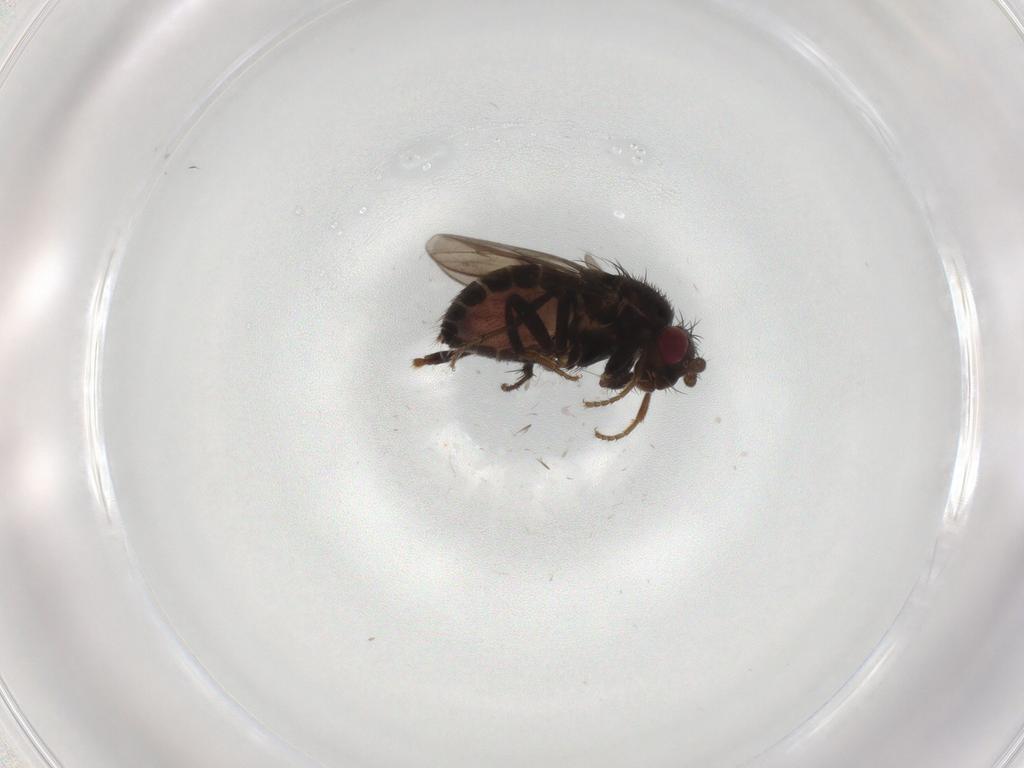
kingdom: Animalia
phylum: Arthropoda
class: Insecta
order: Diptera
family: Sphaeroceridae
